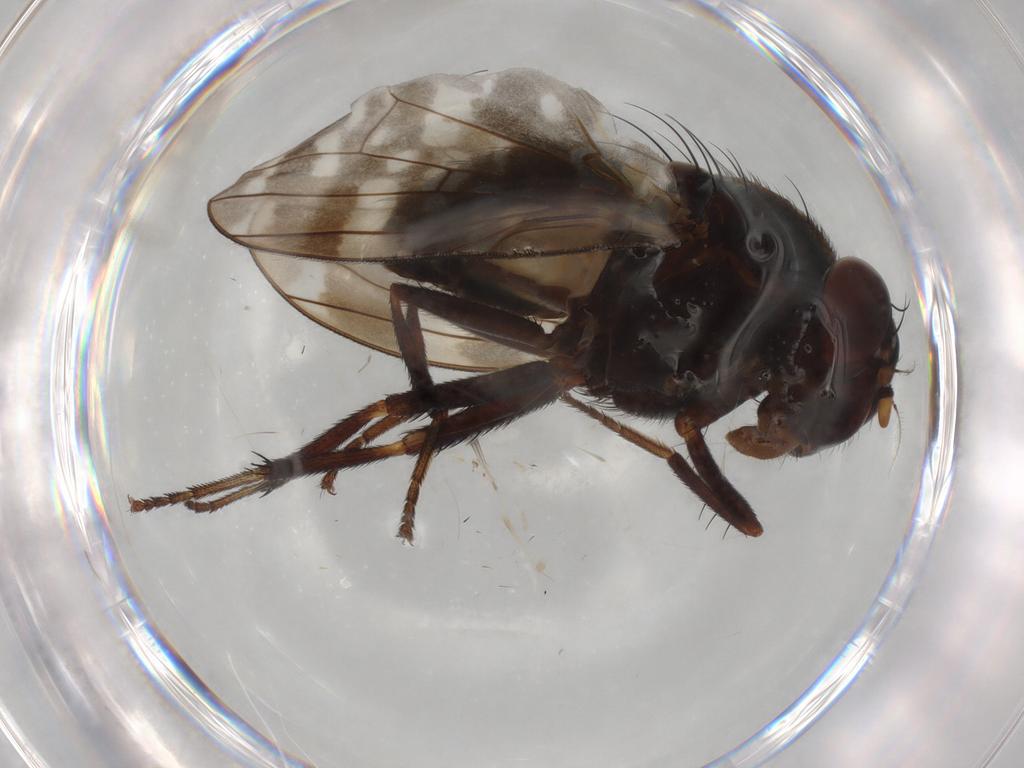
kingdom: Animalia
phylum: Arthropoda
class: Insecta
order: Diptera
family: Sciaridae
